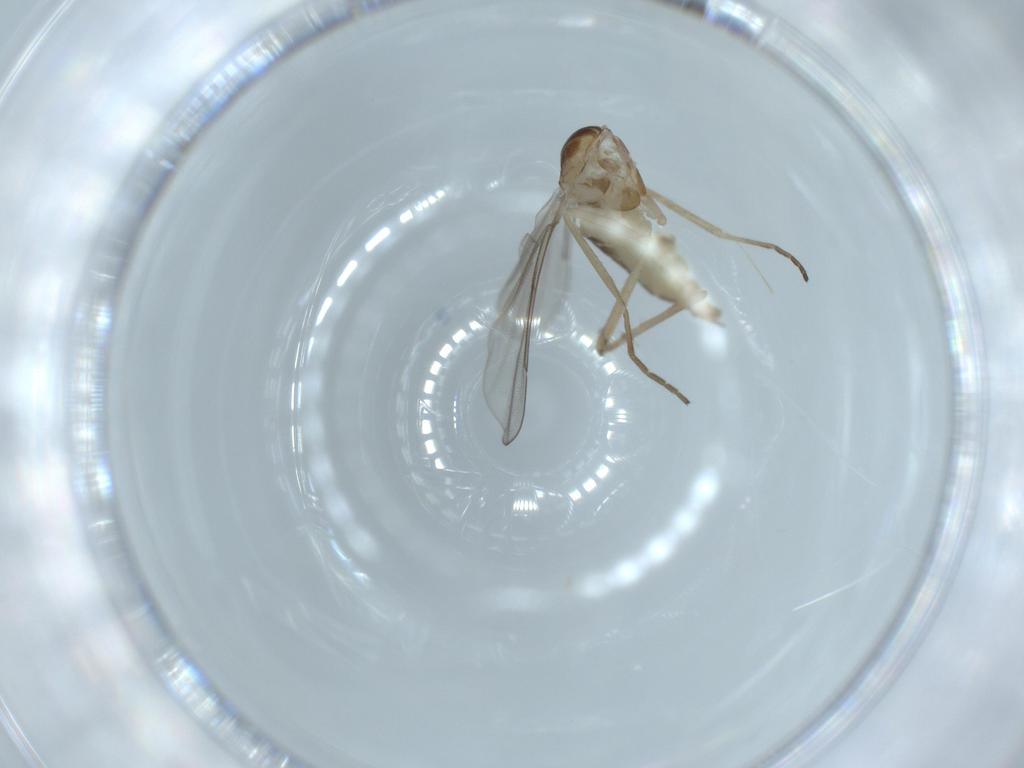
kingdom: Animalia
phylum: Arthropoda
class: Insecta
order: Diptera
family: Cecidomyiidae
